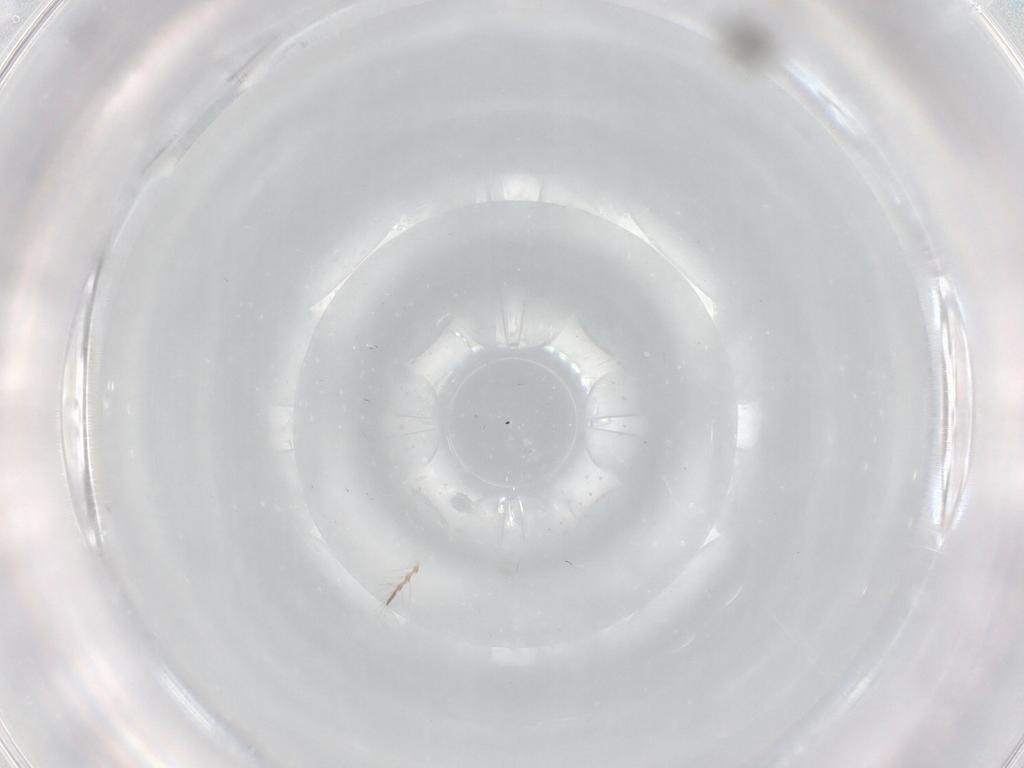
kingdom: Animalia
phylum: Arthropoda
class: Insecta
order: Diptera
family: Cecidomyiidae
